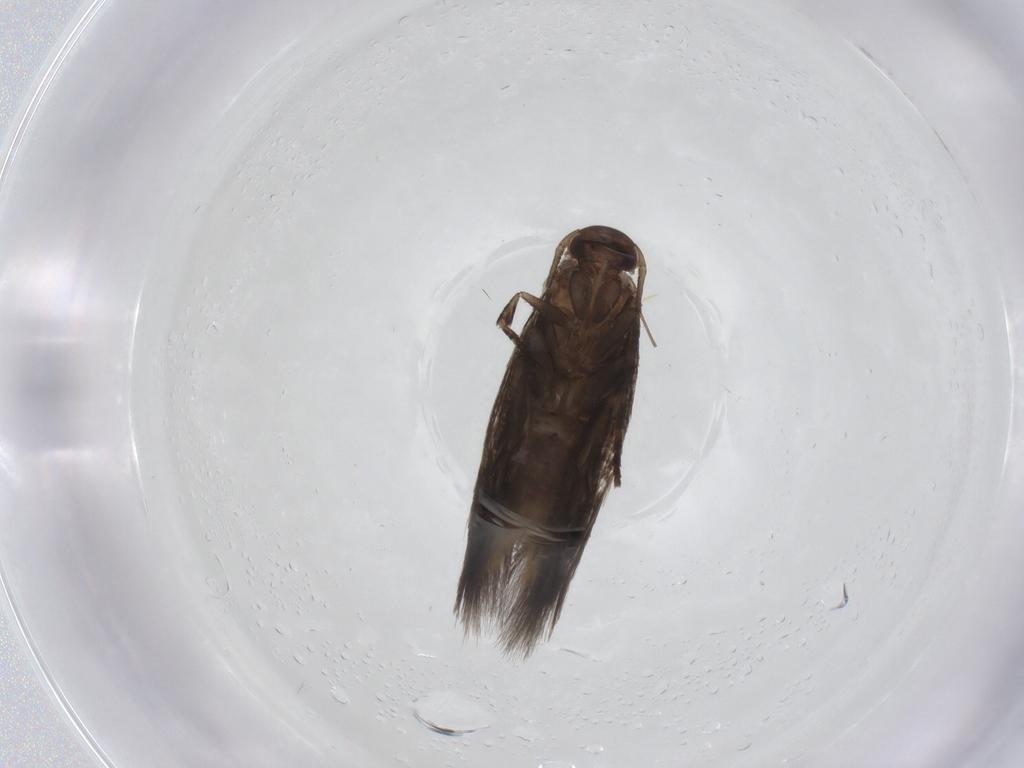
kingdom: Animalia
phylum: Arthropoda
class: Insecta
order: Lepidoptera
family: Elachistidae
